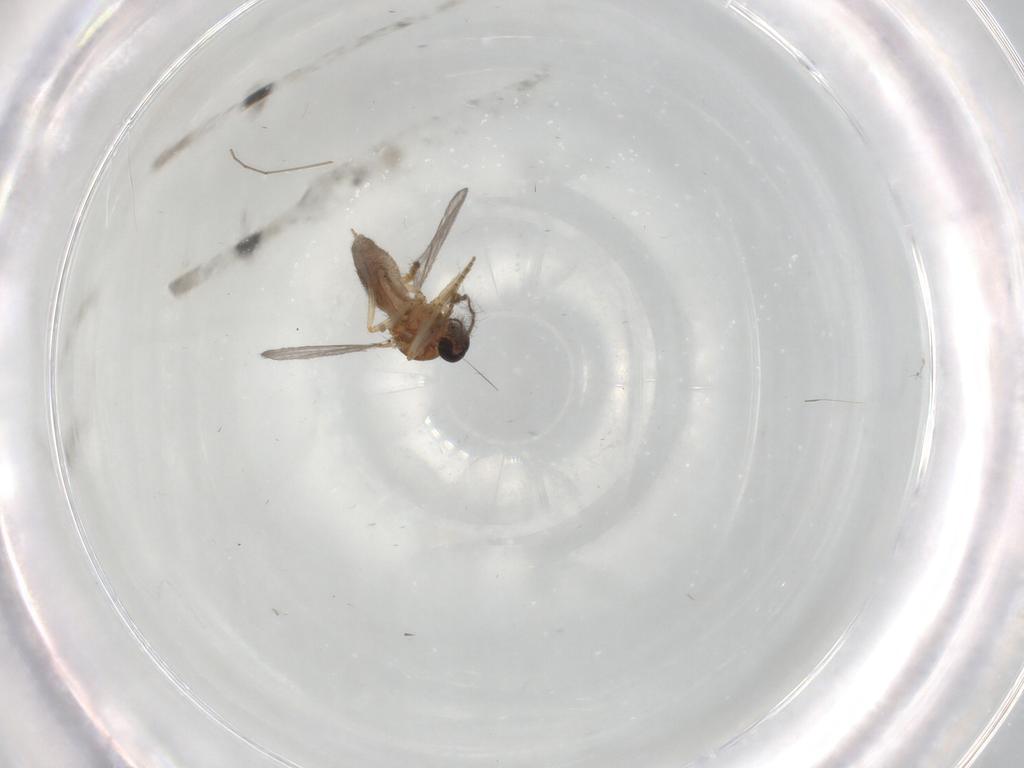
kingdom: Animalia
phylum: Arthropoda
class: Insecta
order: Diptera
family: Ceratopogonidae
